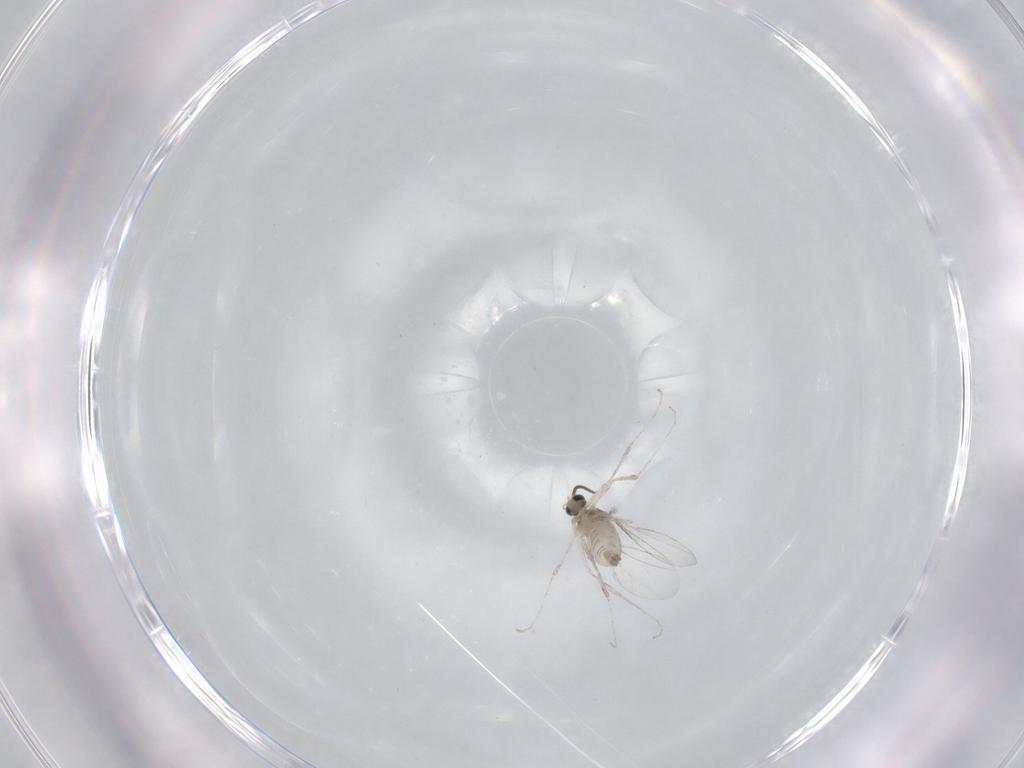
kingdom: Animalia
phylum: Arthropoda
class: Insecta
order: Diptera
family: Cecidomyiidae
